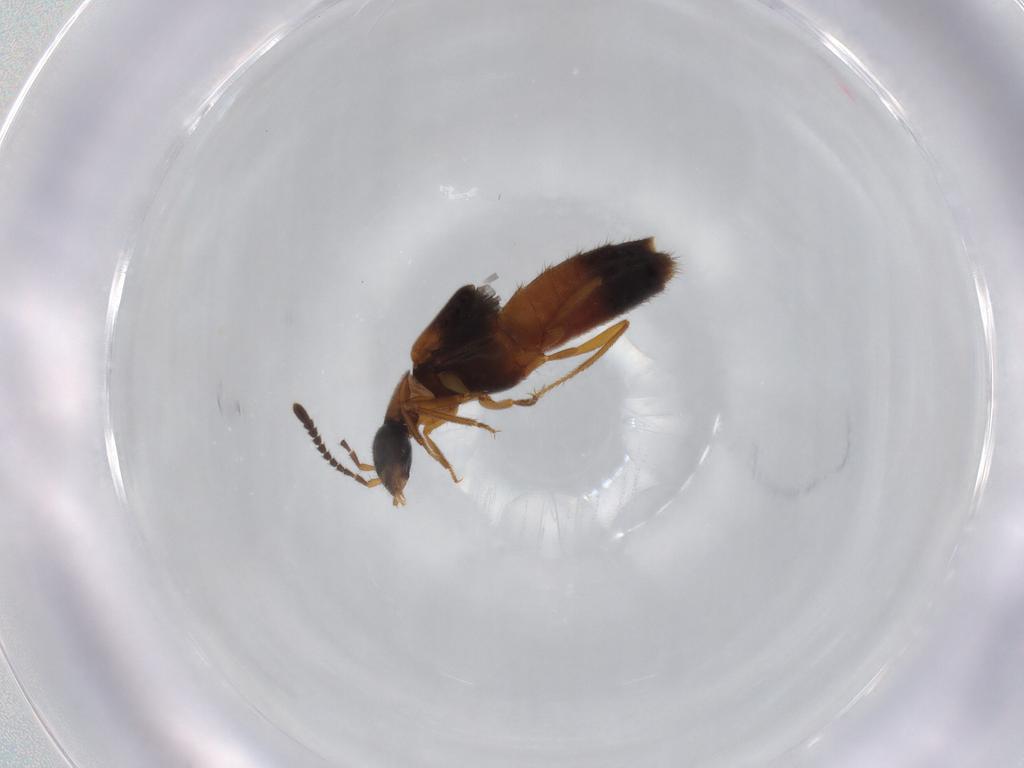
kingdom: Animalia
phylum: Arthropoda
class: Insecta
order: Coleoptera
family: Staphylinidae
